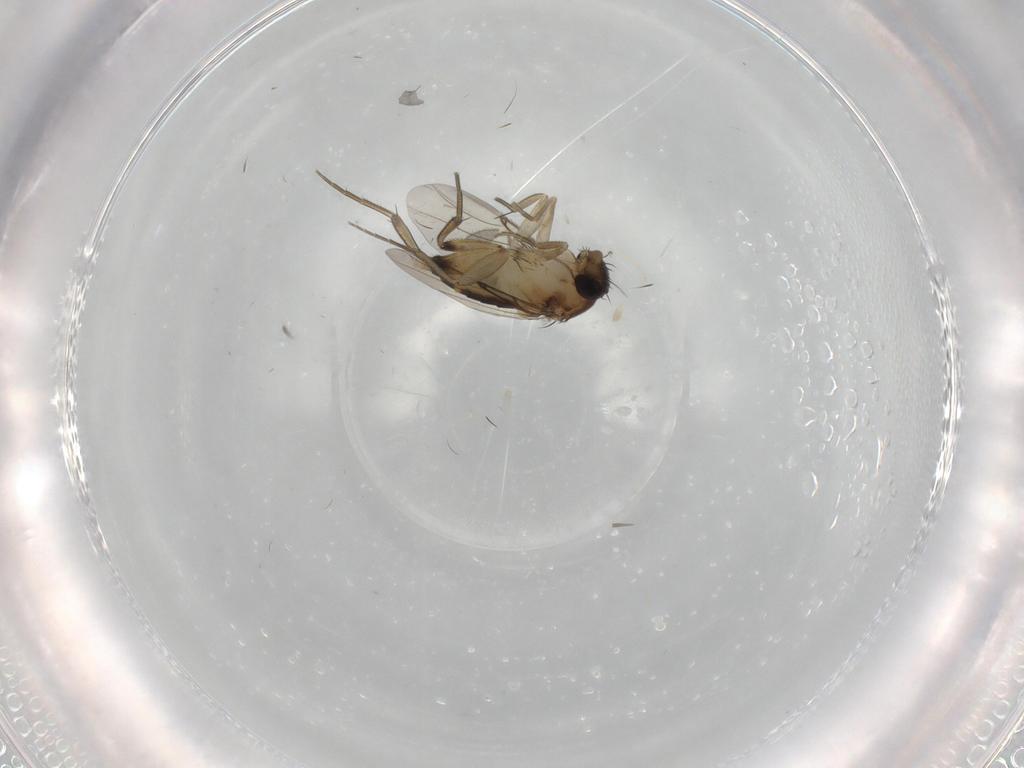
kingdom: Animalia
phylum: Arthropoda
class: Insecta
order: Diptera
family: Phoridae
